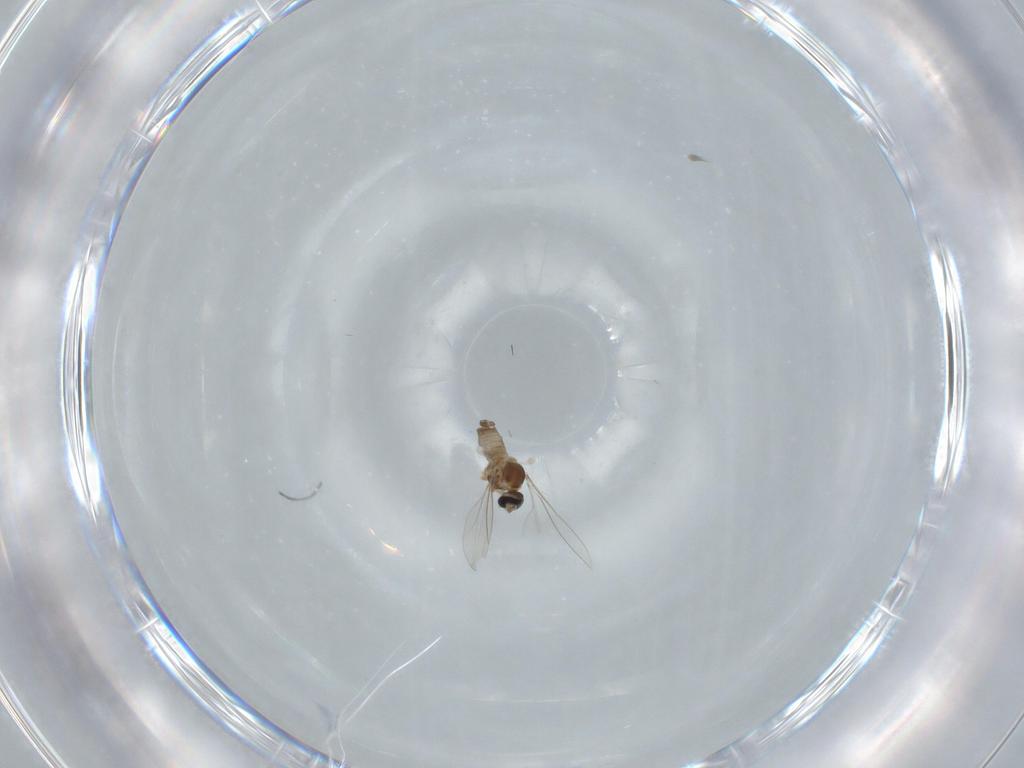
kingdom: Animalia
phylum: Arthropoda
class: Insecta
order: Diptera
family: Cecidomyiidae
